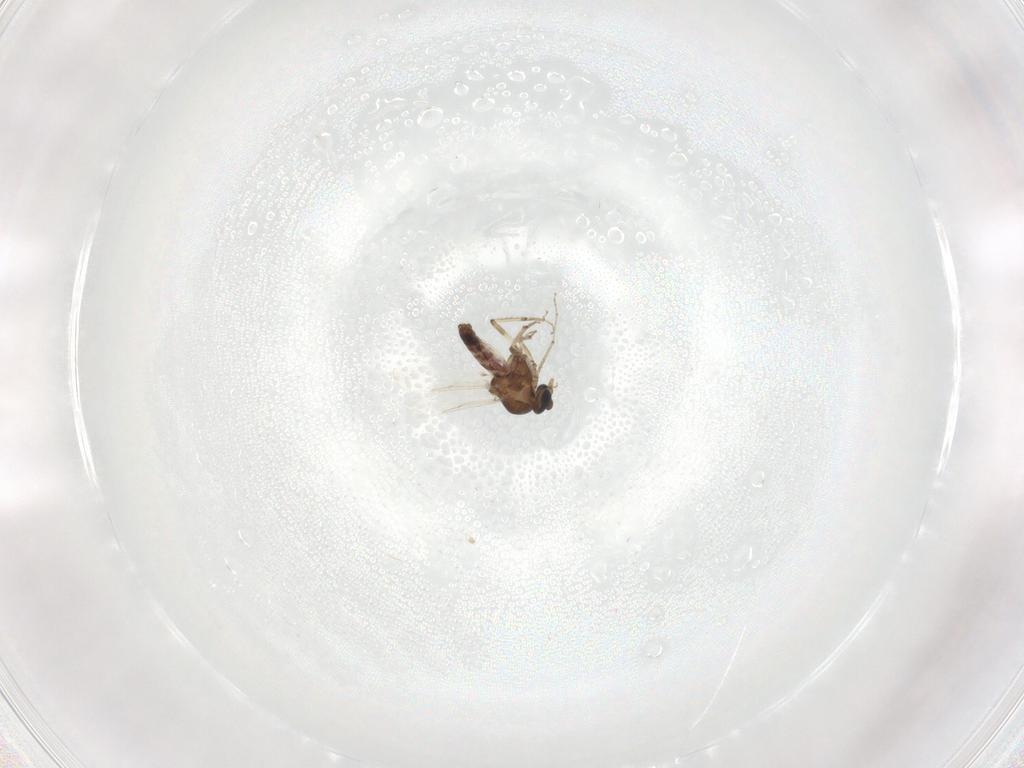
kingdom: Animalia
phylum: Arthropoda
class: Insecta
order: Diptera
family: Ceratopogonidae
